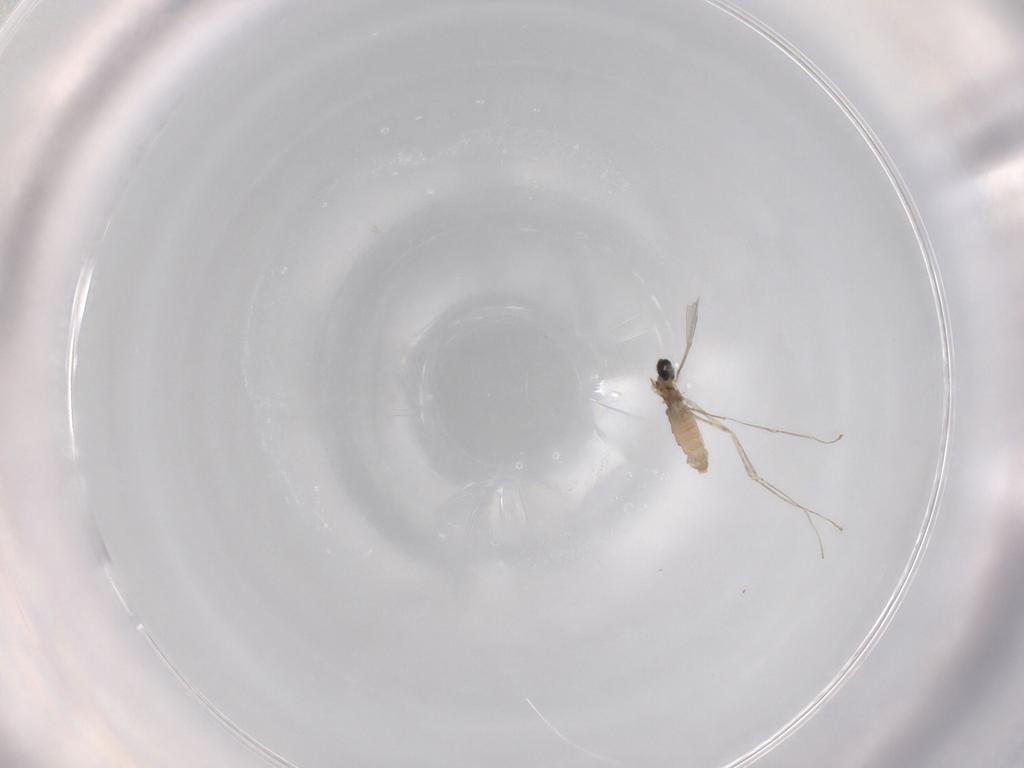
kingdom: Animalia
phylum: Arthropoda
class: Insecta
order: Diptera
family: Cecidomyiidae
